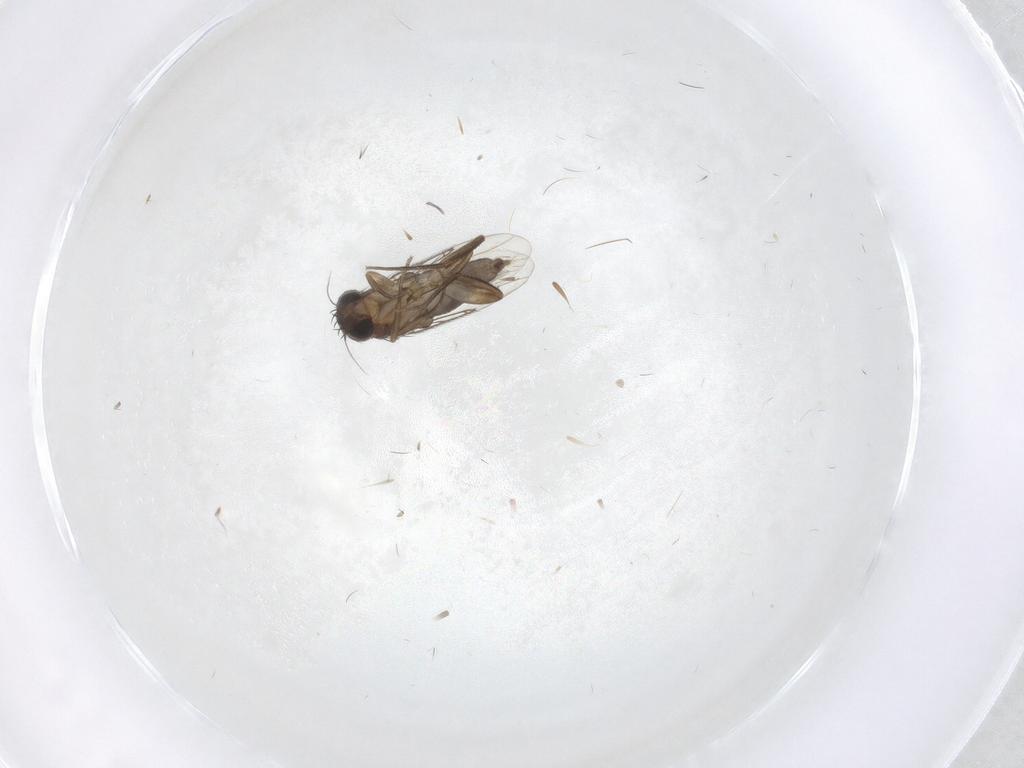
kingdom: Animalia
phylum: Arthropoda
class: Insecta
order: Diptera
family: Phoridae
